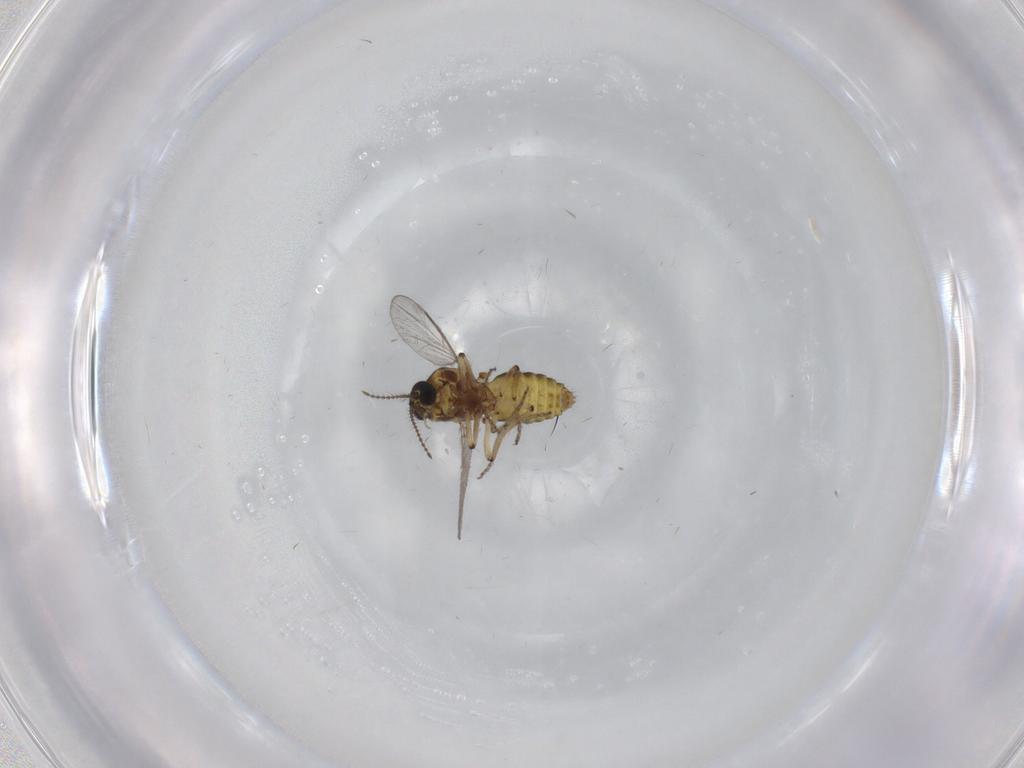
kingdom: Animalia
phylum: Arthropoda
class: Insecta
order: Diptera
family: Ceratopogonidae
